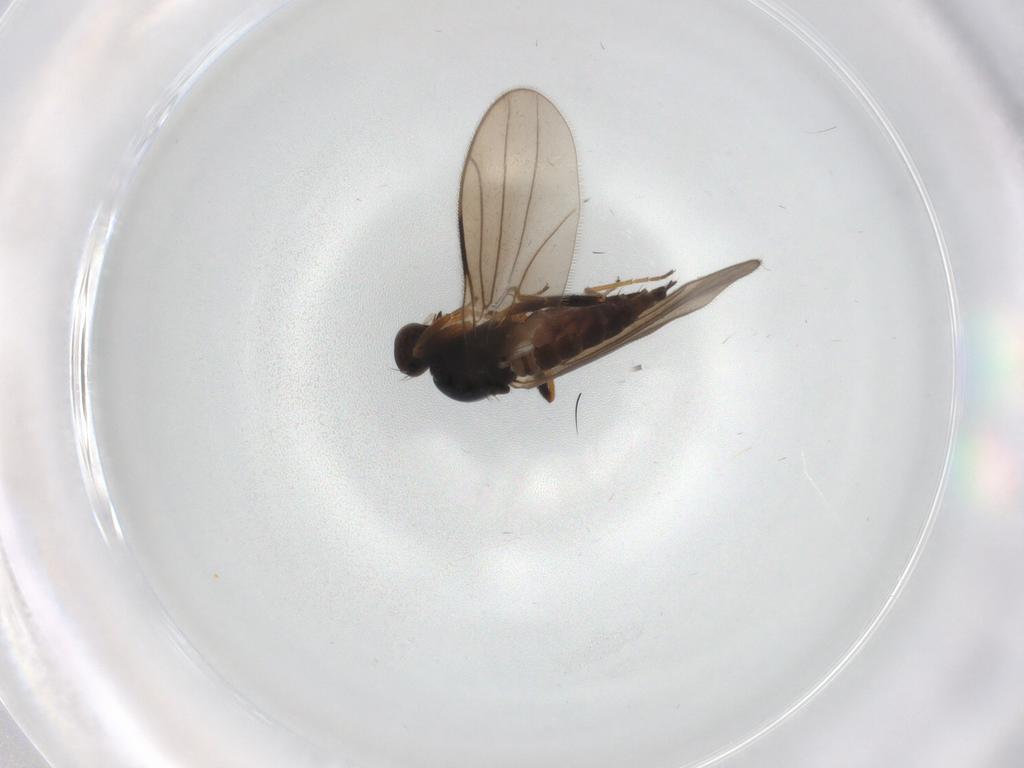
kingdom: Animalia
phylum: Arthropoda
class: Insecta
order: Diptera
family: Hybotidae
